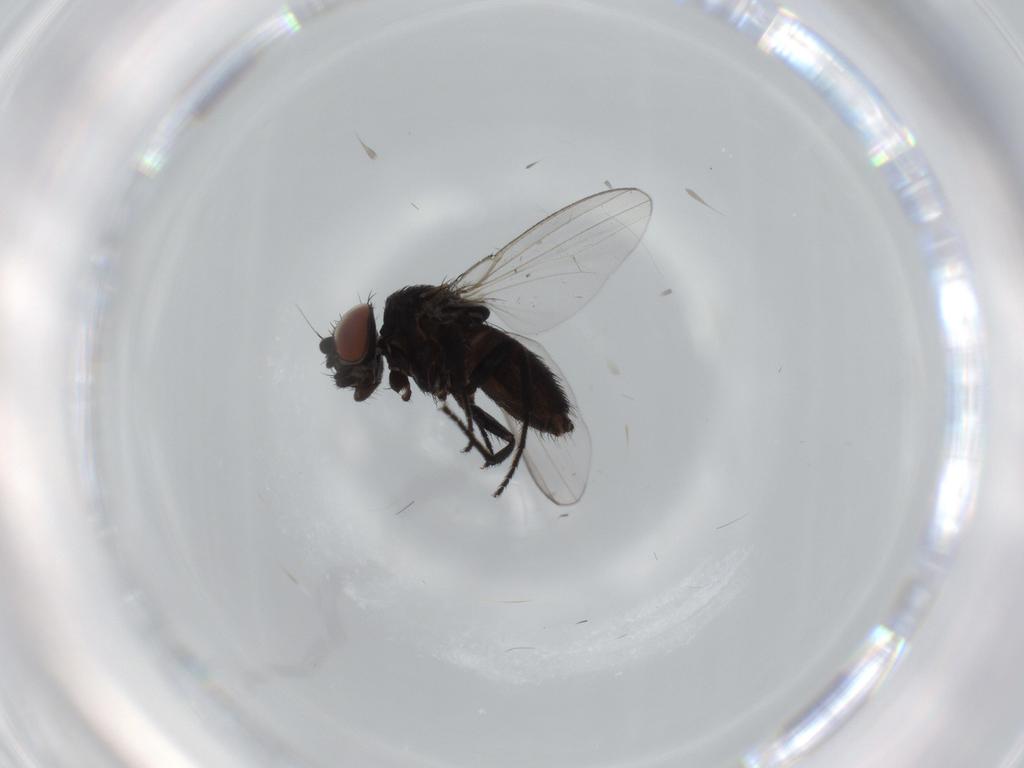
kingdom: Animalia
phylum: Arthropoda
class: Insecta
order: Diptera
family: Milichiidae
